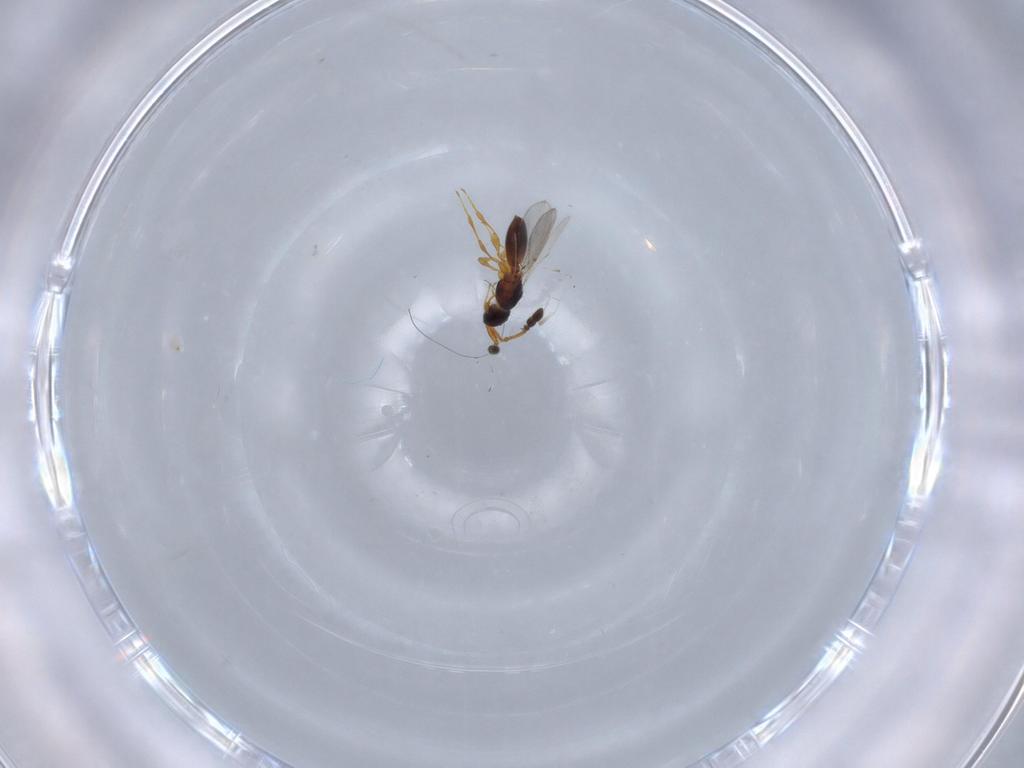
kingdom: Animalia
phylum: Arthropoda
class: Insecta
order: Hymenoptera
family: Diapriidae
